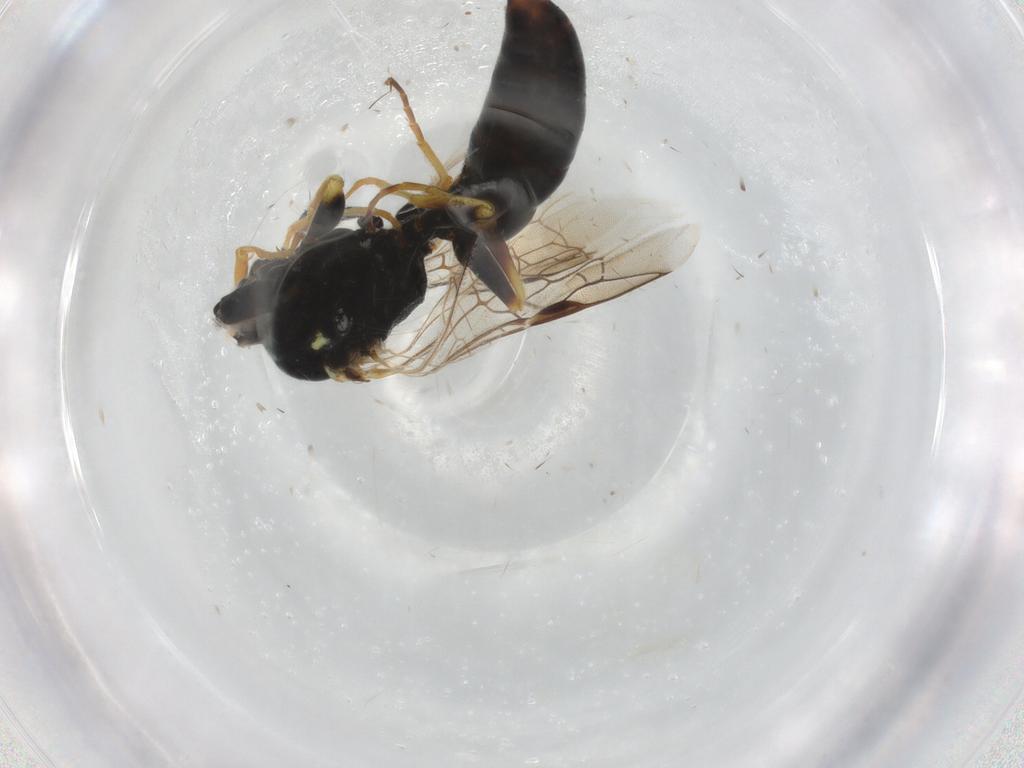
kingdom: Animalia
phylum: Arthropoda
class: Insecta
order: Hymenoptera
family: Crabronidae
